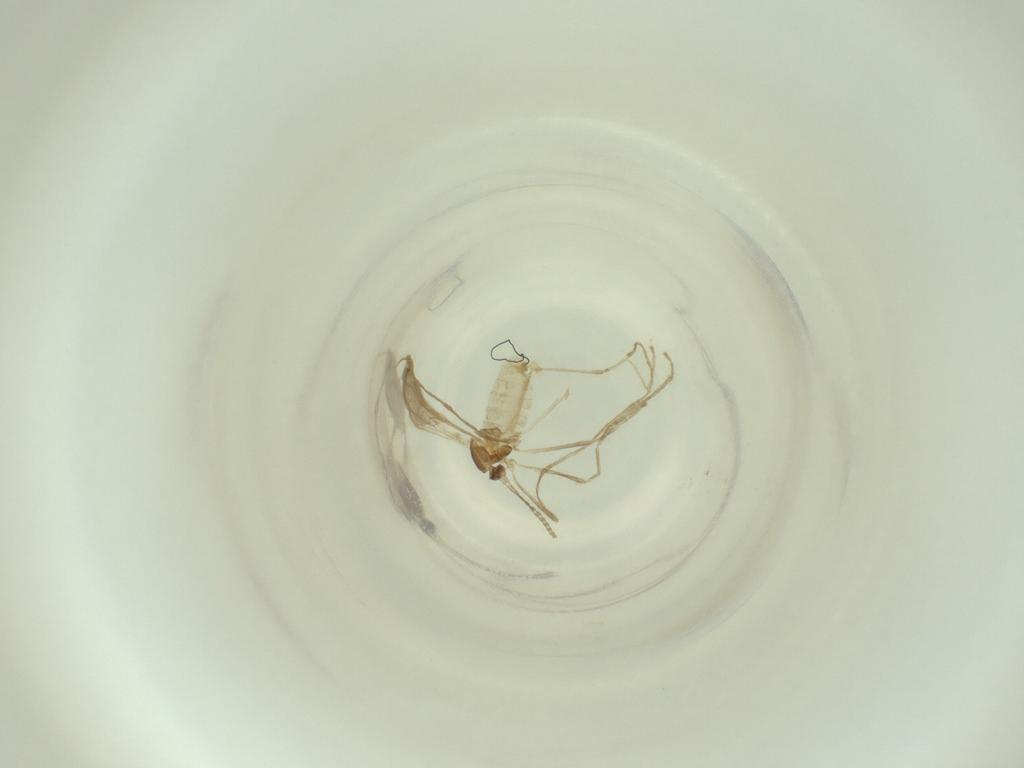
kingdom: Animalia
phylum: Arthropoda
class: Insecta
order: Diptera
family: Cecidomyiidae
